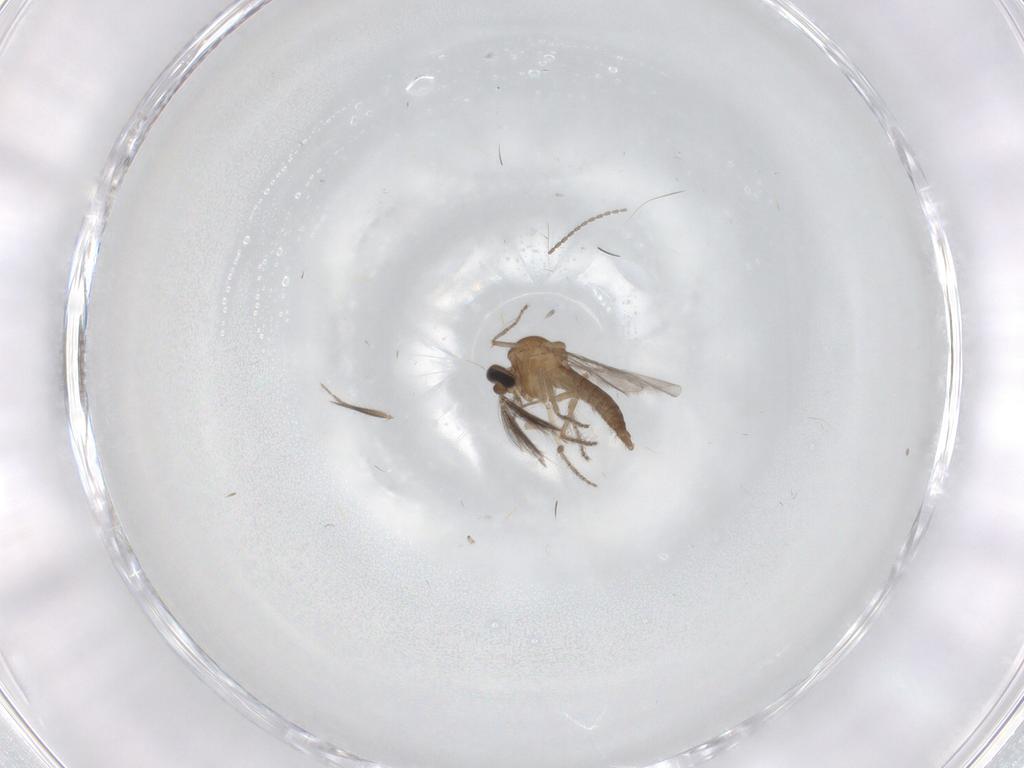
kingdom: Animalia
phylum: Arthropoda
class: Insecta
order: Diptera
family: Ceratopogonidae
